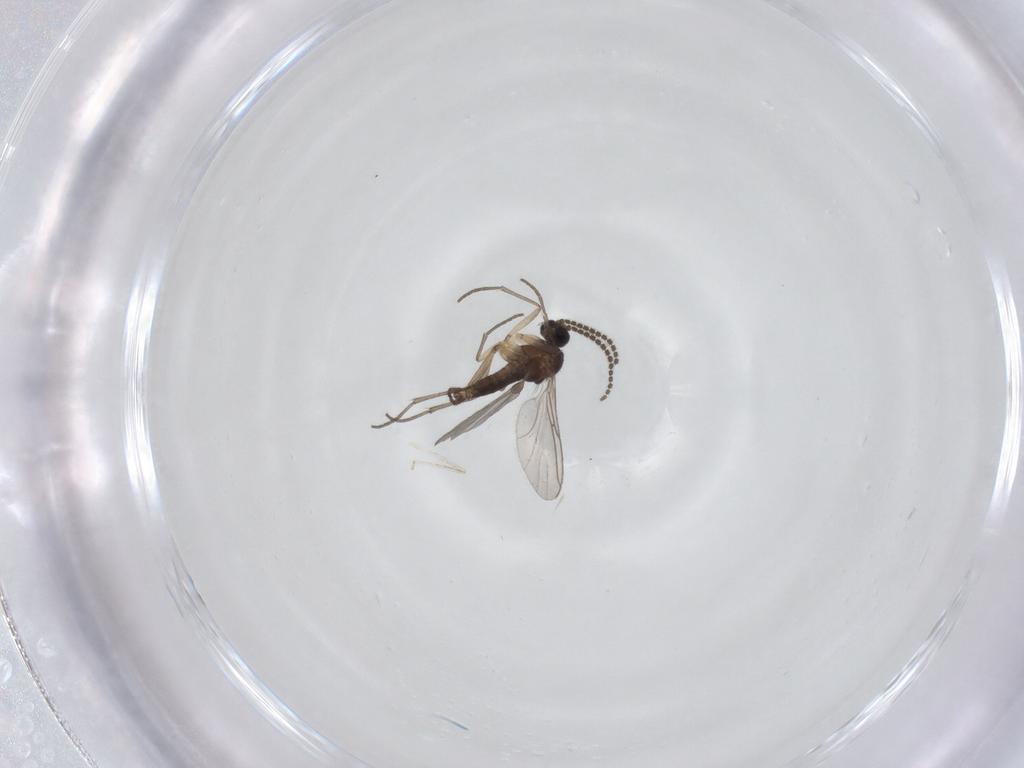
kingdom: Animalia
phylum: Arthropoda
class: Insecta
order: Diptera
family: Sciaridae
